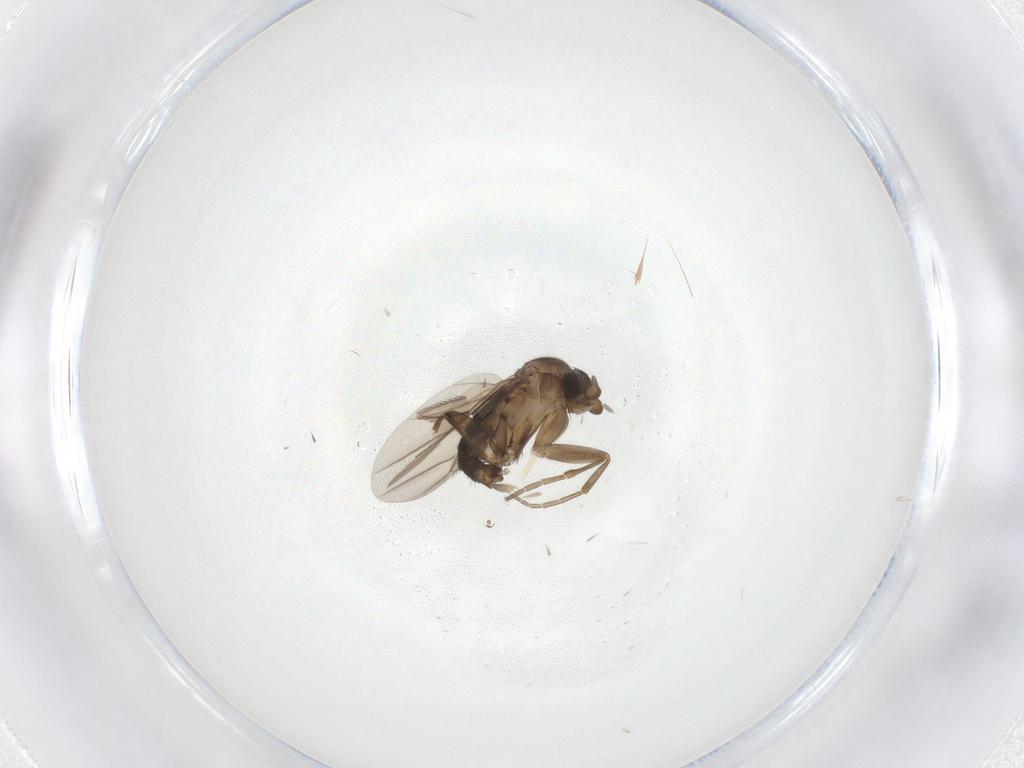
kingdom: Animalia
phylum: Arthropoda
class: Insecta
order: Diptera
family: Phoridae
